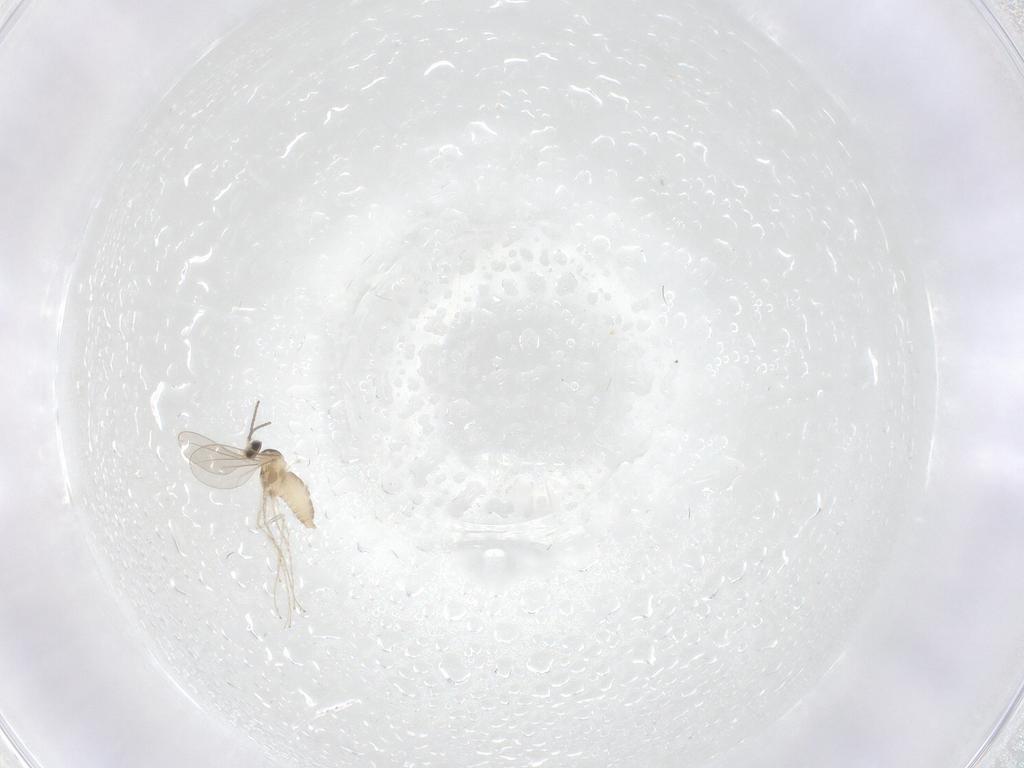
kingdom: Animalia
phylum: Arthropoda
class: Insecta
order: Diptera
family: Cecidomyiidae
